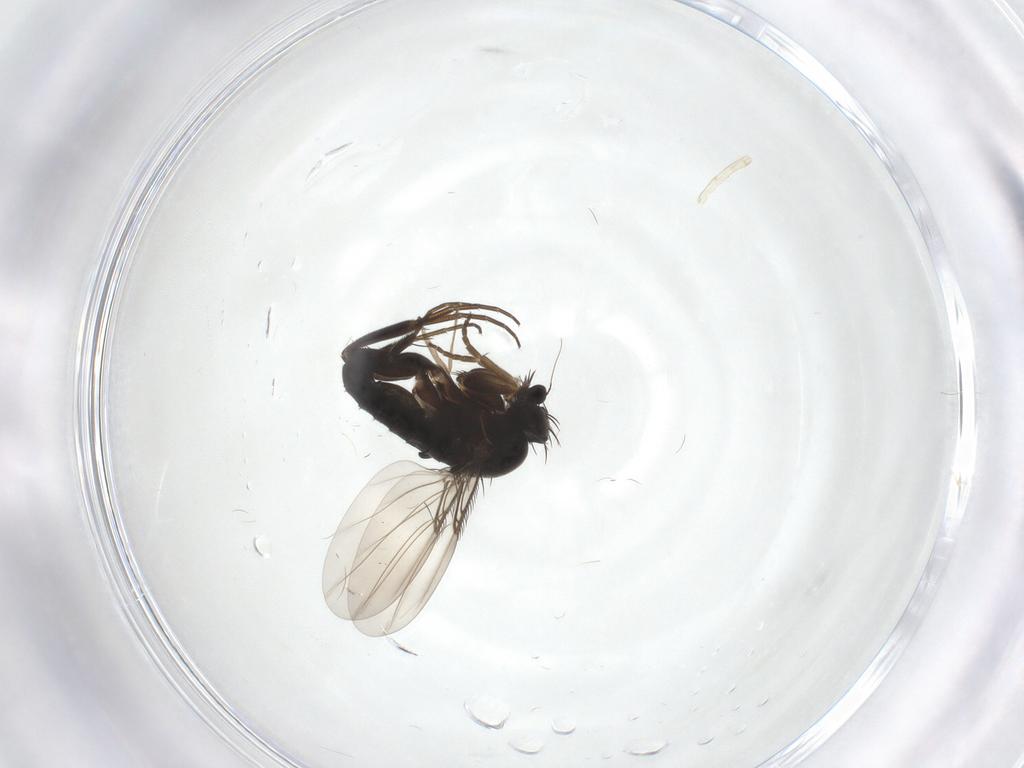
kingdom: Animalia
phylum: Arthropoda
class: Insecta
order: Diptera
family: Phoridae
